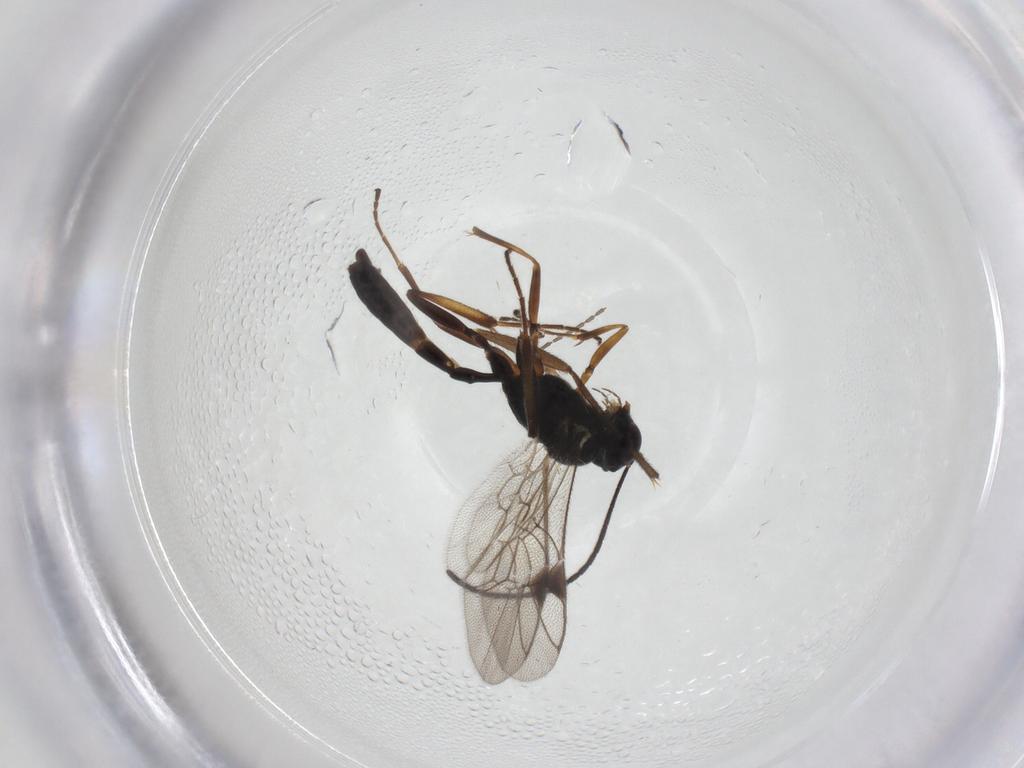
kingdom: Animalia
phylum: Arthropoda
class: Insecta
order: Hymenoptera
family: Ichneumonidae
